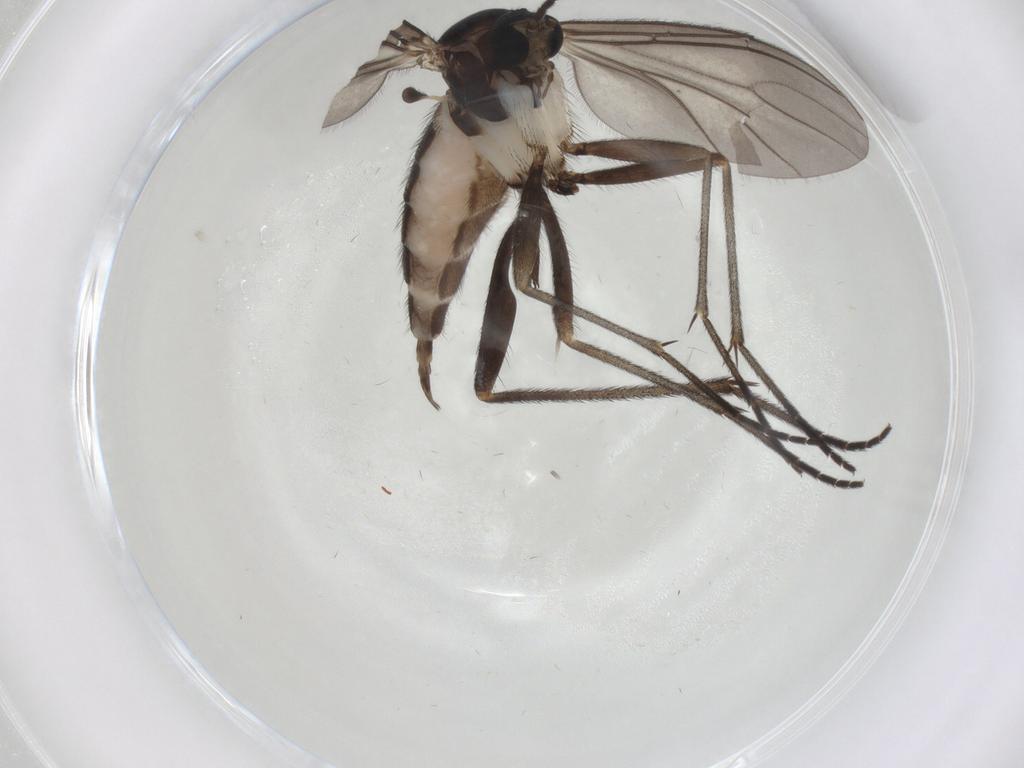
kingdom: Animalia
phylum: Arthropoda
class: Insecta
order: Diptera
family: Sciaridae
